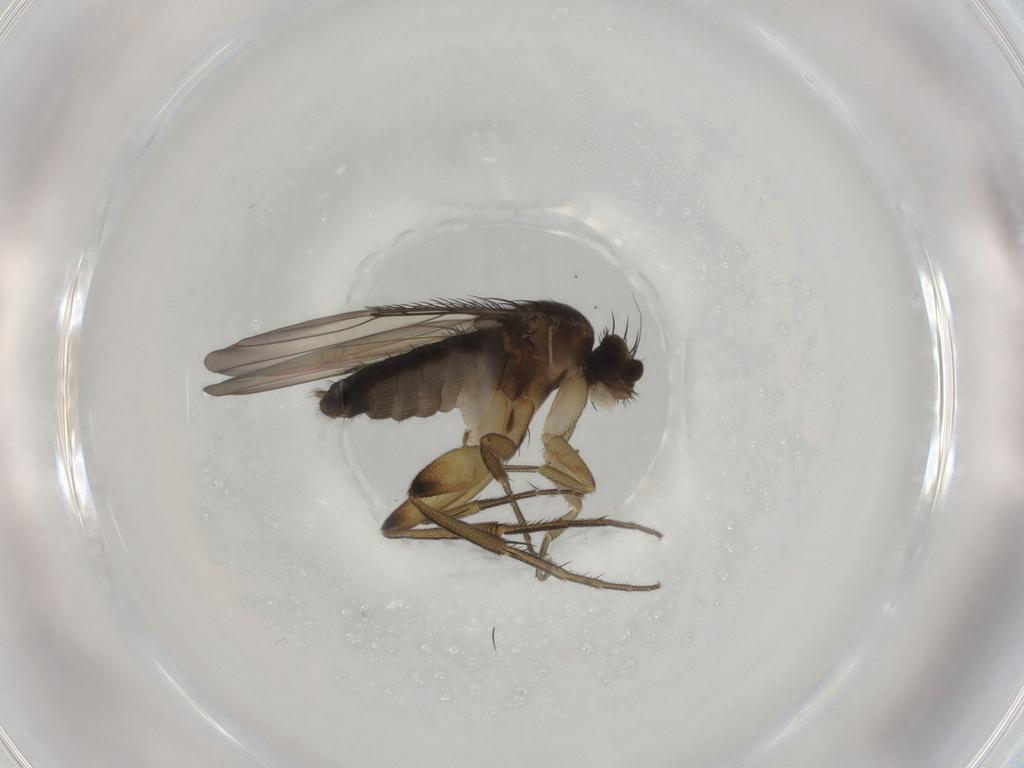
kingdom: Animalia
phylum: Arthropoda
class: Insecta
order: Diptera
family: Phoridae
